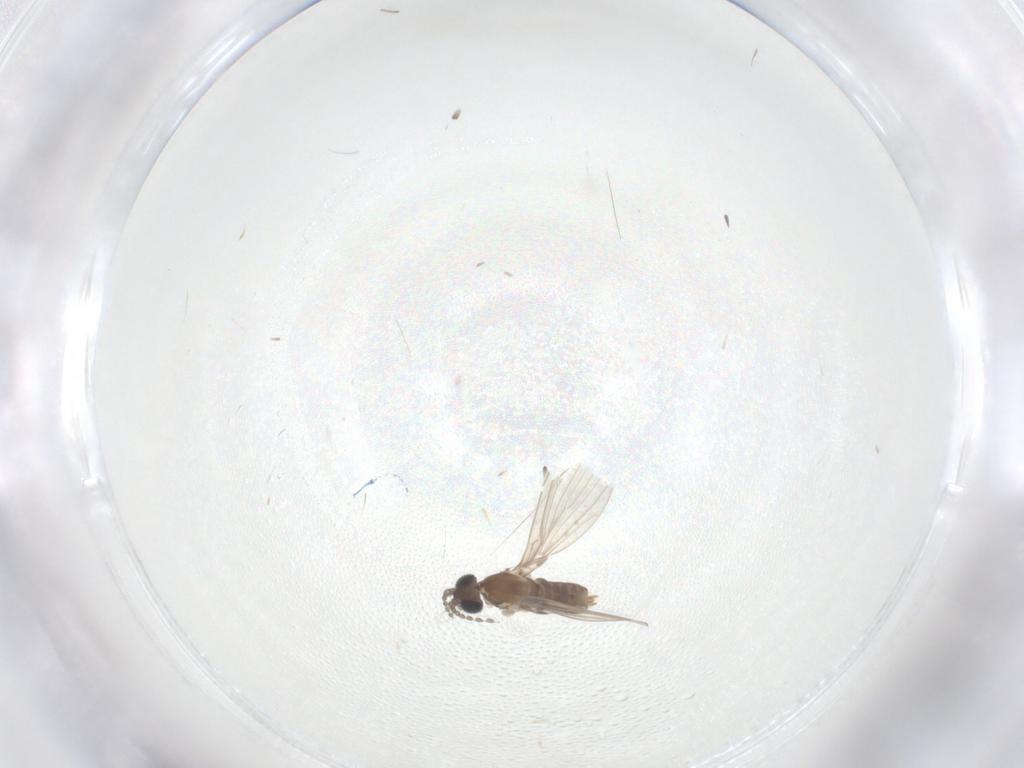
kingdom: Animalia
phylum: Arthropoda
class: Insecta
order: Diptera
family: Chironomidae
